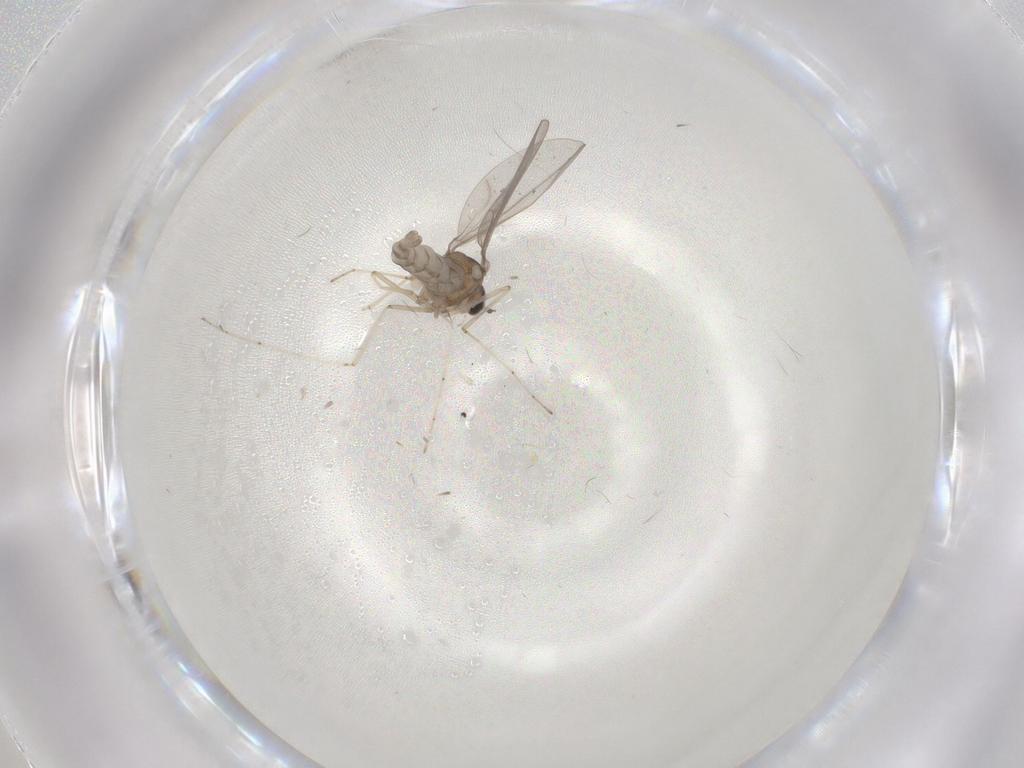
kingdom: Animalia
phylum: Arthropoda
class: Insecta
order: Diptera
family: Cecidomyiidae
